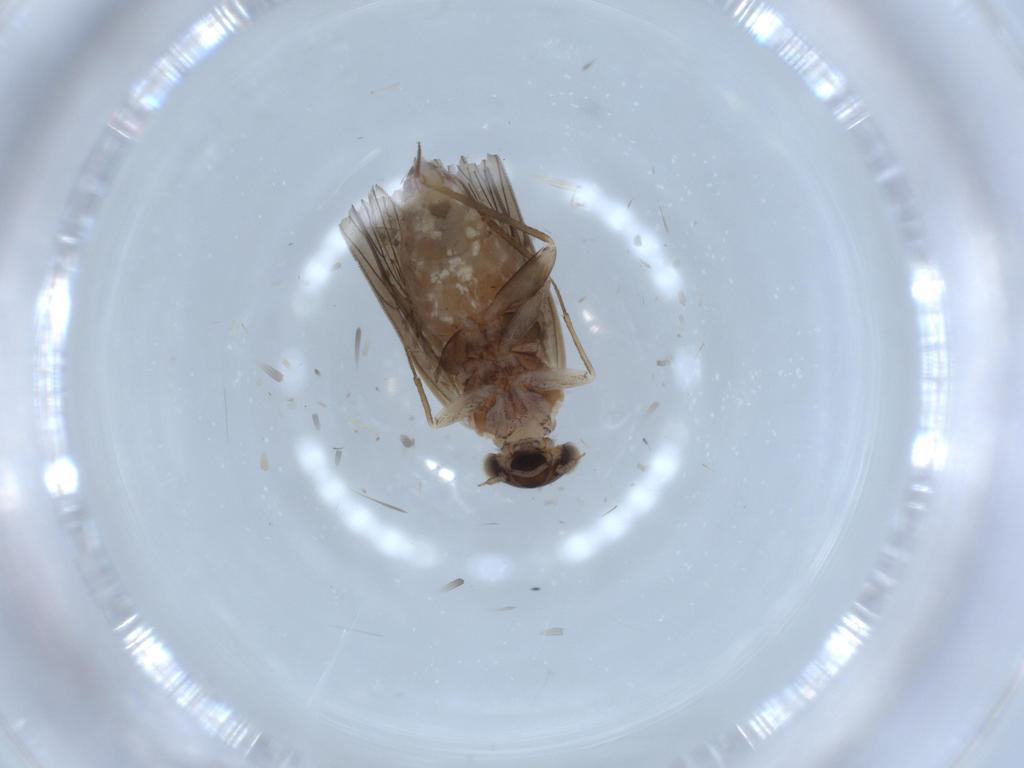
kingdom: Animalia
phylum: Arthropoda
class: Insecta
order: Psocodea
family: Lepidopsocidae
